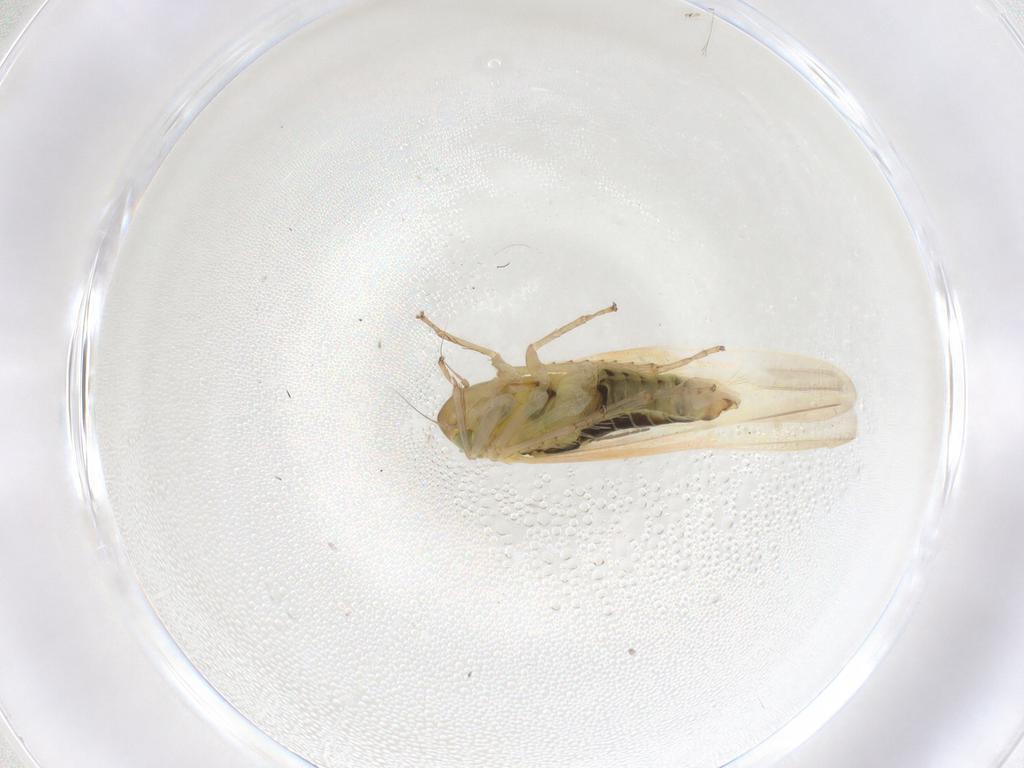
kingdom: Animalia
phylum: Arthropoda
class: Insecta
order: Hemiptera
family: Cicadellidae
